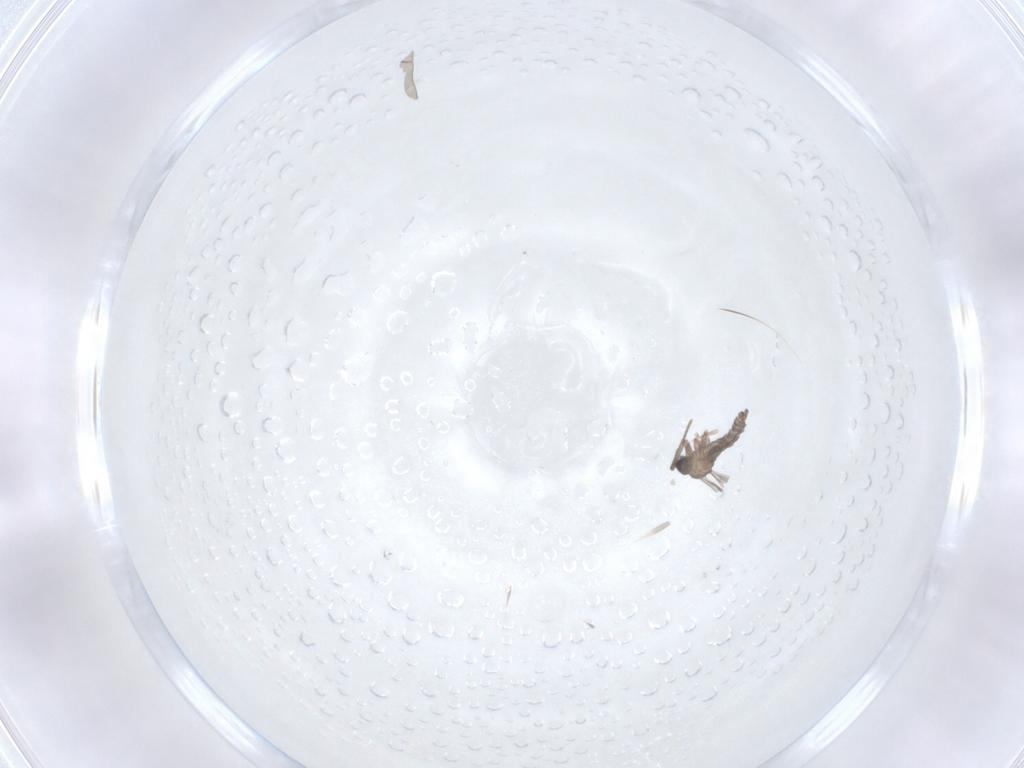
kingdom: Animalia
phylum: Arthropoda
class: Insecta
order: Diptera
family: Sciaridae
